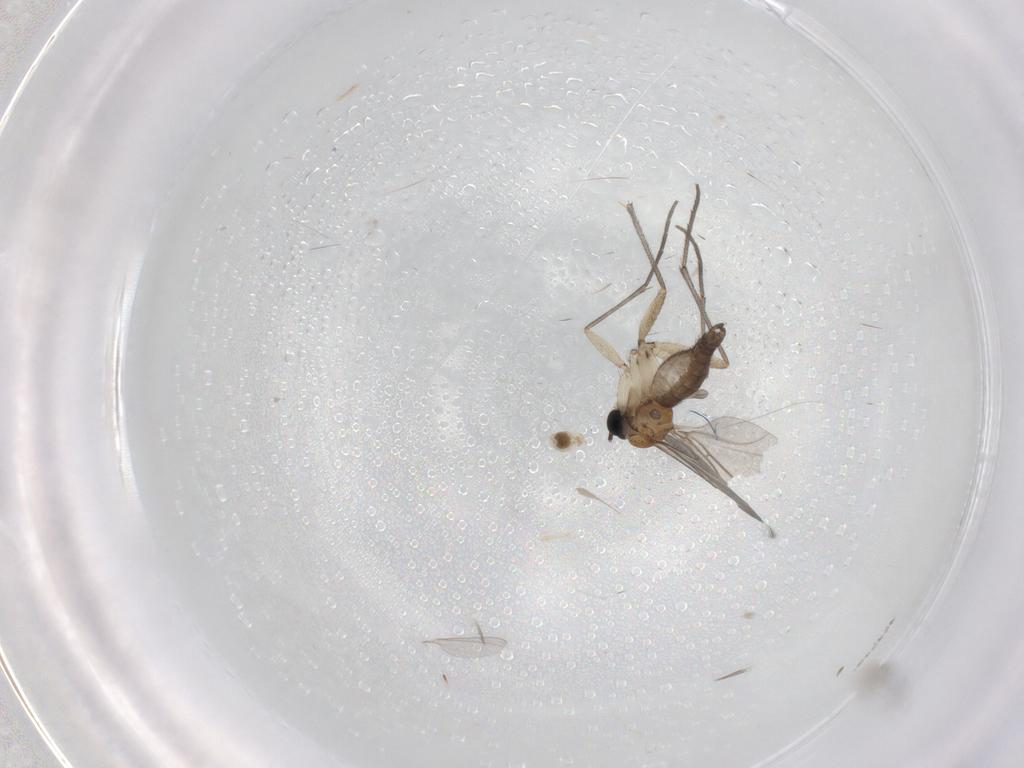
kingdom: Animalia
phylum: Arthropoda
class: Insecta
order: Diptera
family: Sciaridae
